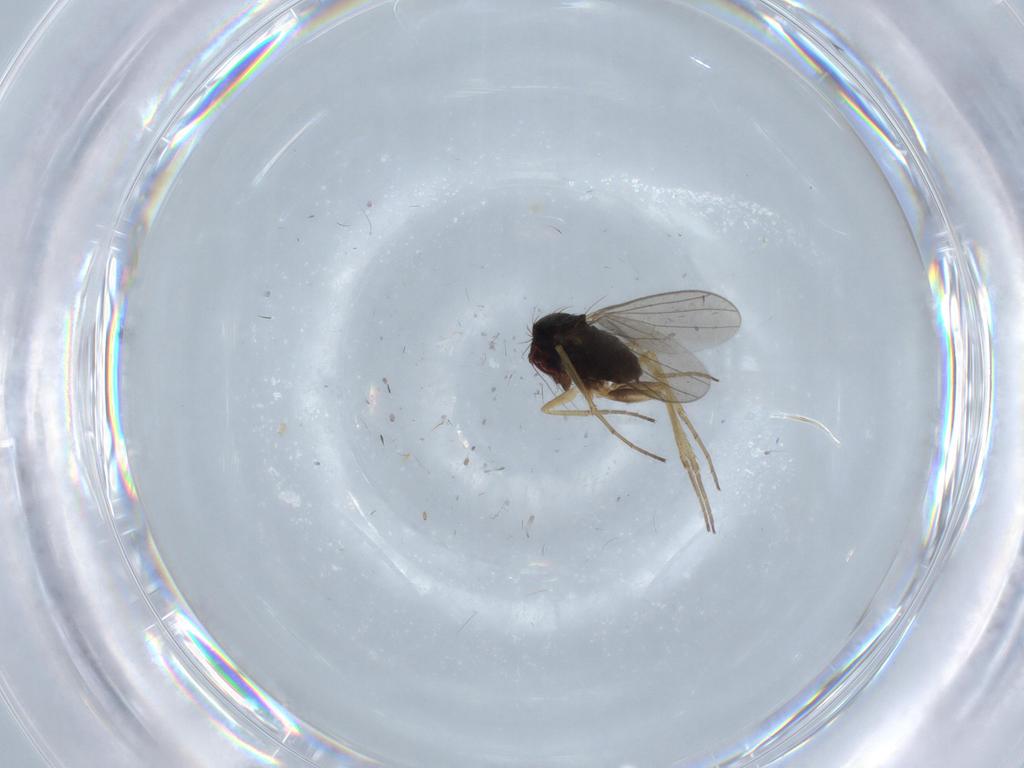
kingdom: Animalia
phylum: Arthropoda
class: Insecta
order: Diptera
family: Dolichopodidae
